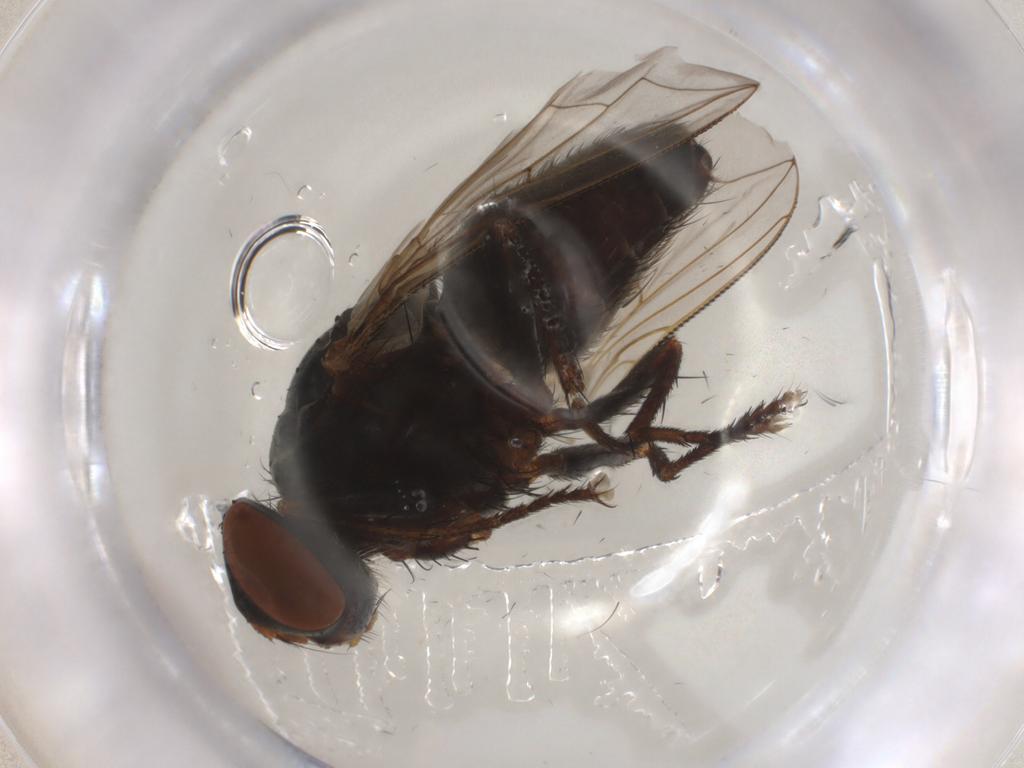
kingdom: Animalia
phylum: Arthropoda
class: Insecta
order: Diptera
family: Sarcophagidae
